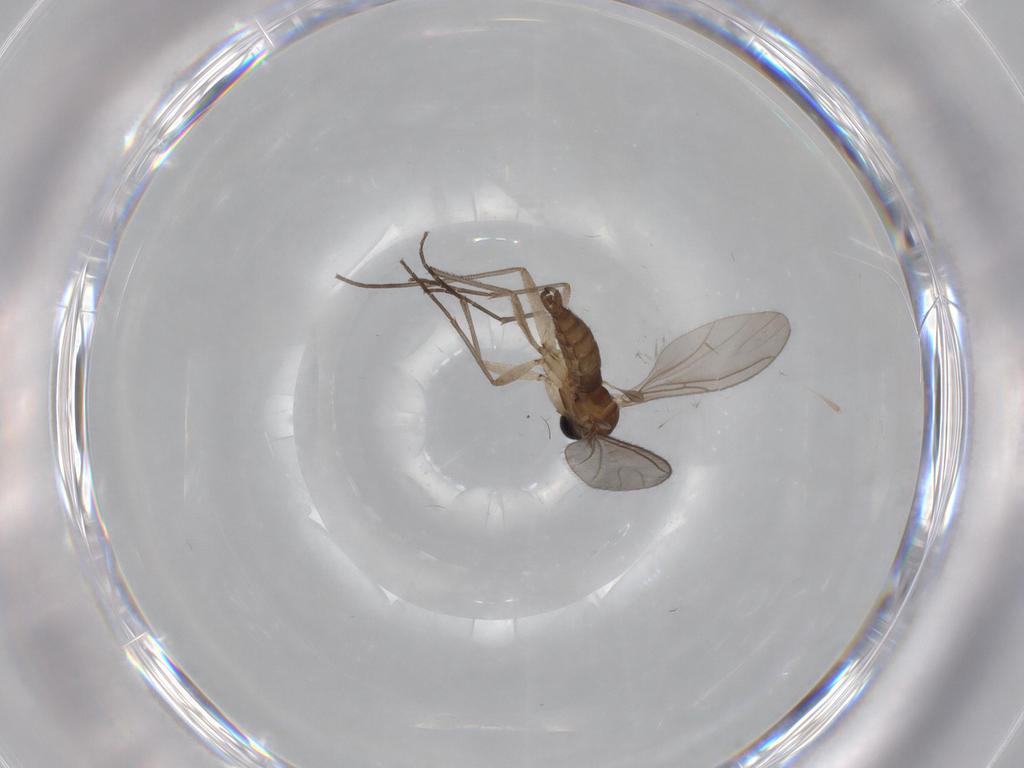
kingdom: Animalia
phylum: Arthropoda
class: Insecta
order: Diptera
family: Sciaridae
